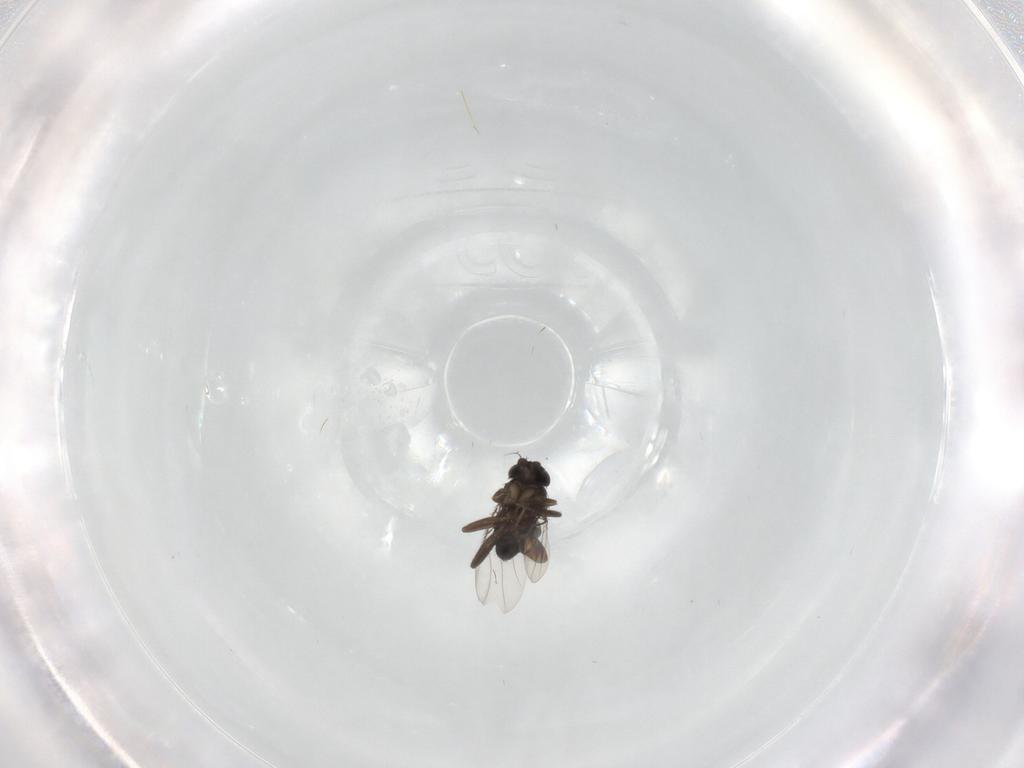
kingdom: Animalia
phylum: Arthropoda
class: Insecta
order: Diptera
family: Phoridae
